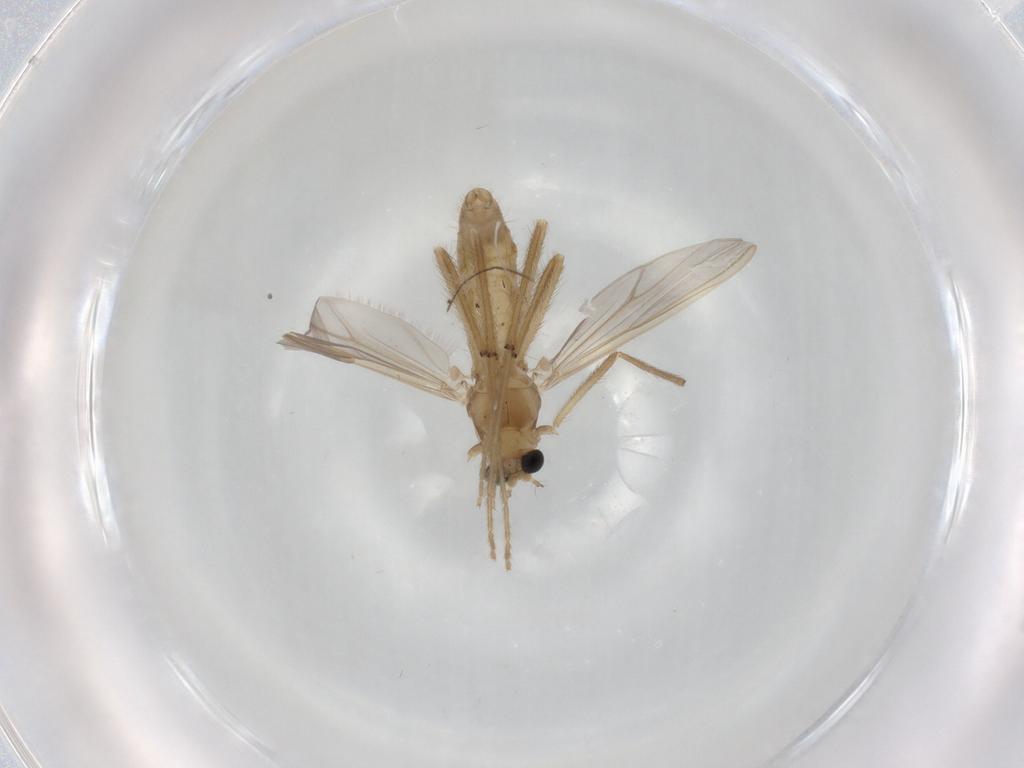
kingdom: Animalia
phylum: Arthropoda
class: Insecta
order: Diptera
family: Chironomidae
